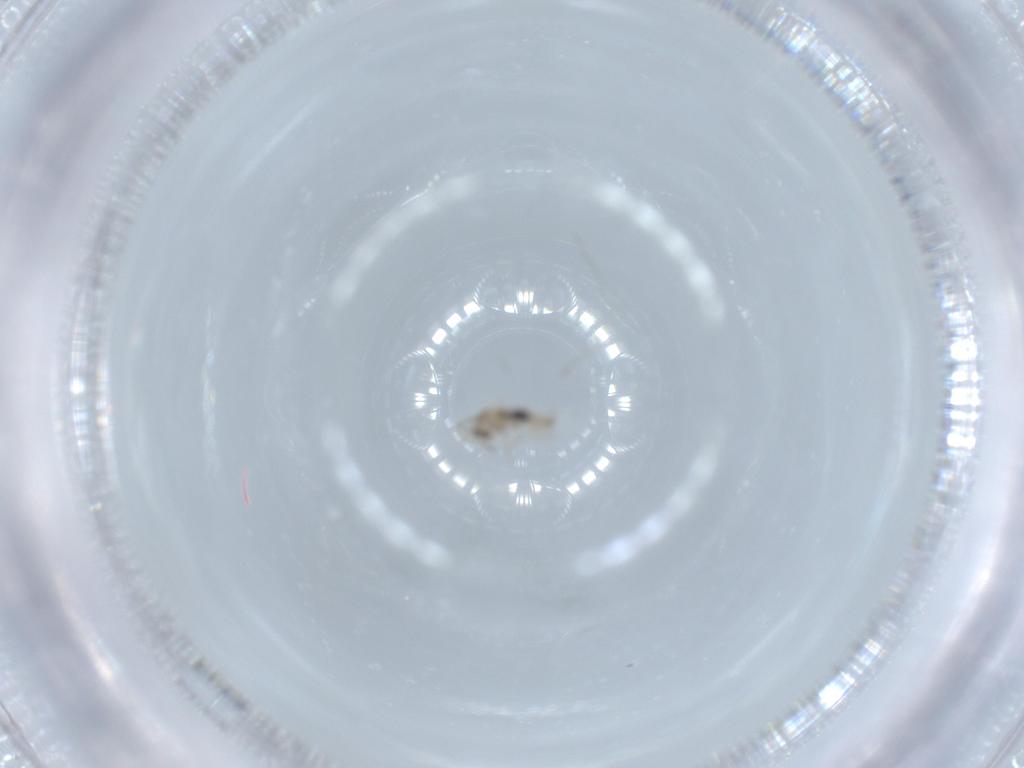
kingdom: Animalia
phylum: Arthropoda
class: Insecta
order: Diptera
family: Cecidomyiidae
